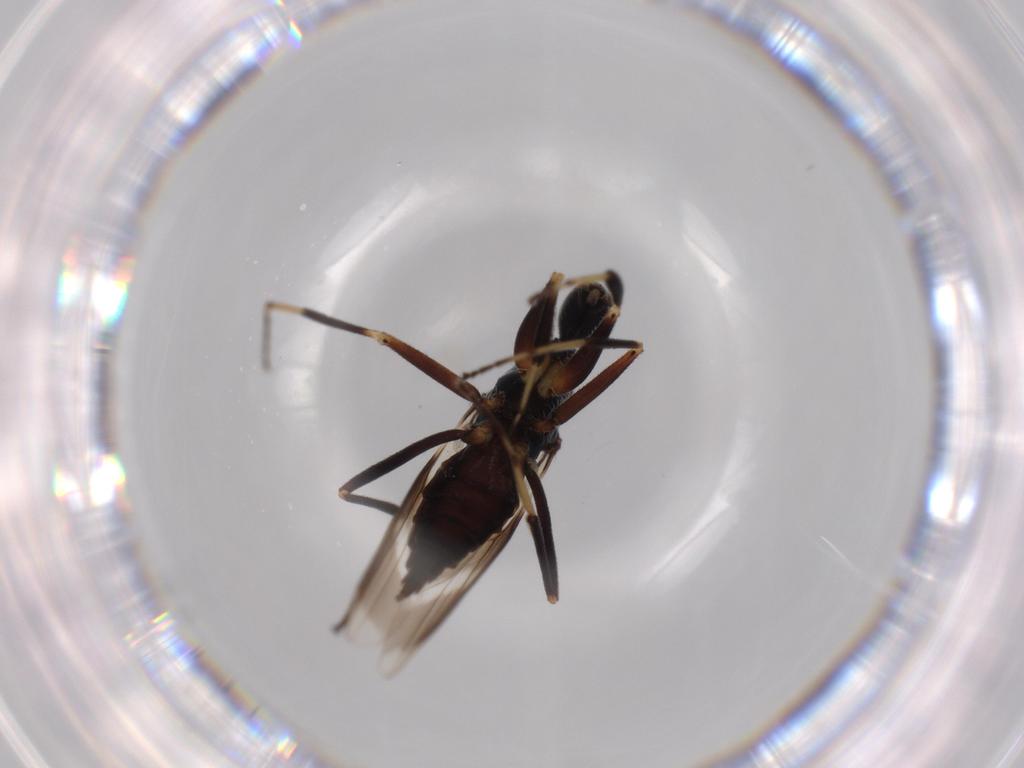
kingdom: Animalia
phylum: Arthropoda
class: Insecta
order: Diptera
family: Hybotidae
